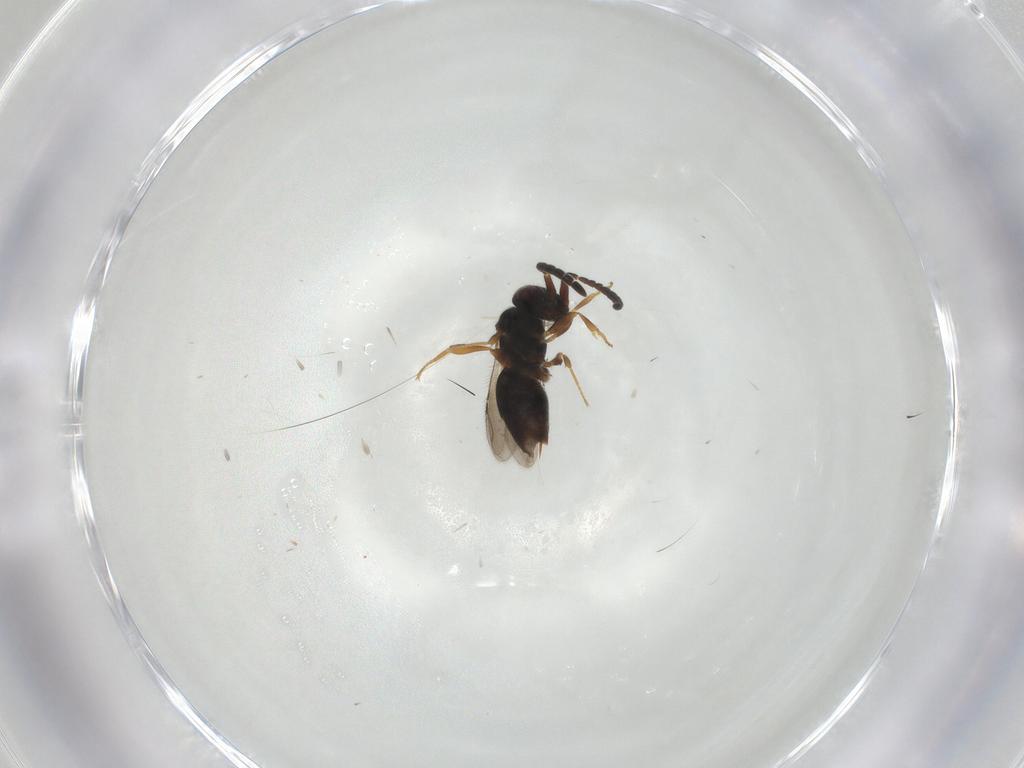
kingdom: Animalia
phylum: Arthropoda
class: Insecta
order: Hymenoptera
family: Ceraphronidae
